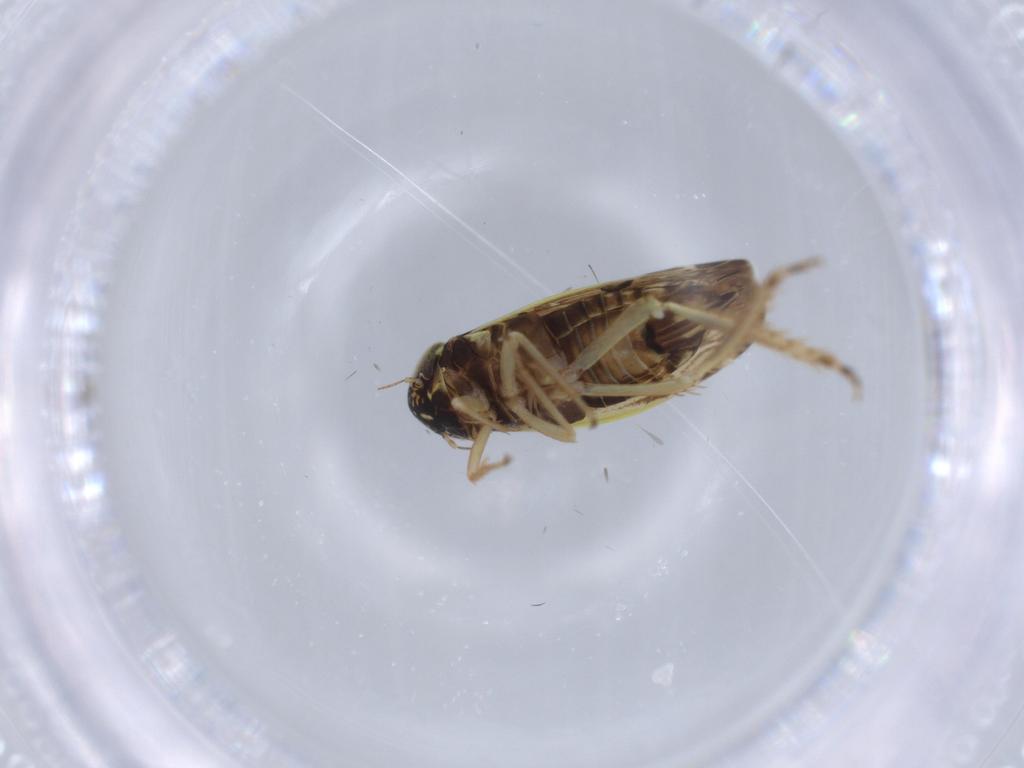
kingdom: Animalia
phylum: Arthropoda
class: Insecta
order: Hemiptera
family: Cicadellidae
